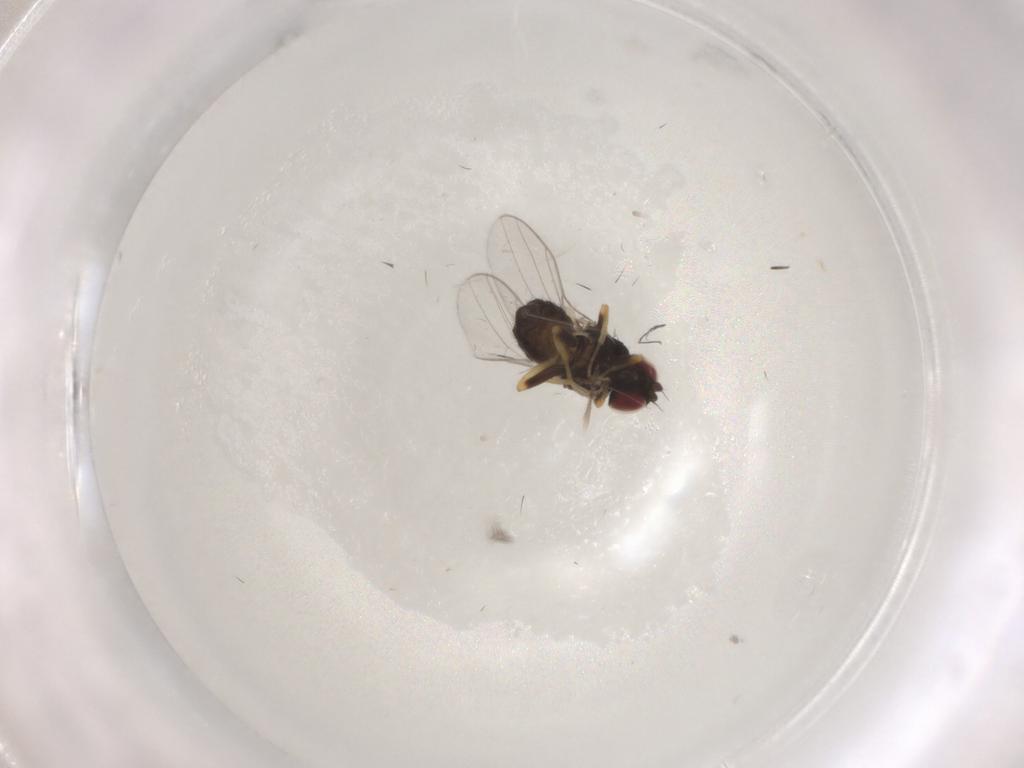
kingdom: Animalia
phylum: Arthropoda
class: Insecta
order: Diptera
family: Chloropidae
